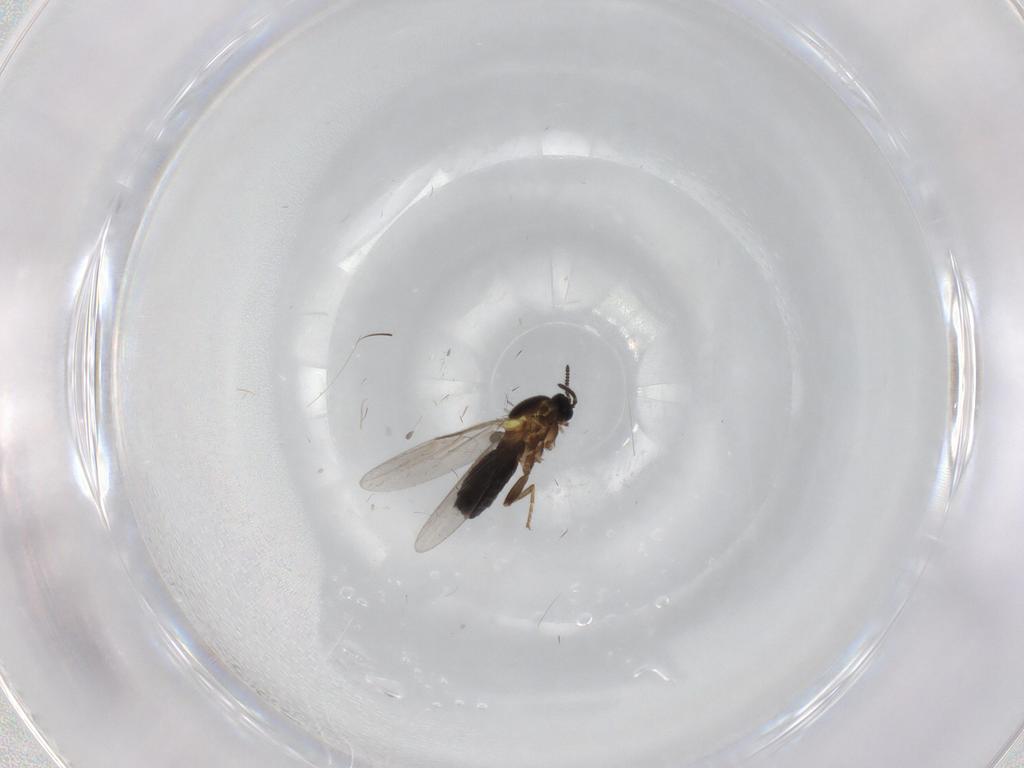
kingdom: Animalia
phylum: Arthropoda
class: Insecta
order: Diptera
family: Scatopsidae
